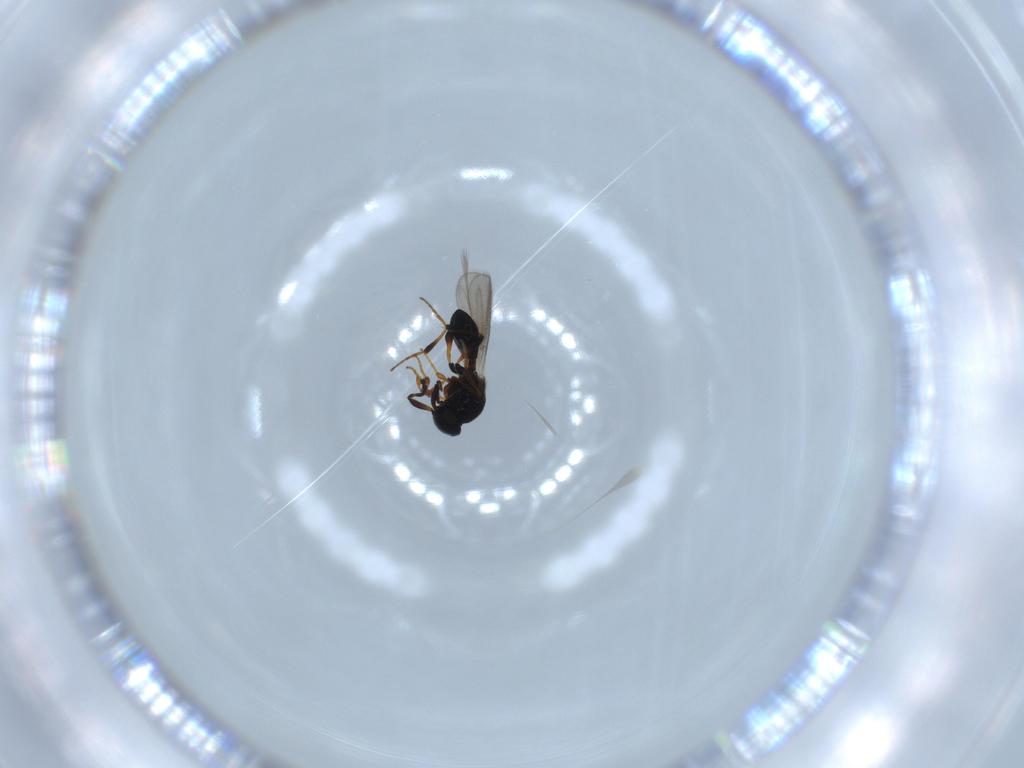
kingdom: Animalia
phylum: Arthropoda
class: Insecta
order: Hymenoptera
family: Platygastridae
